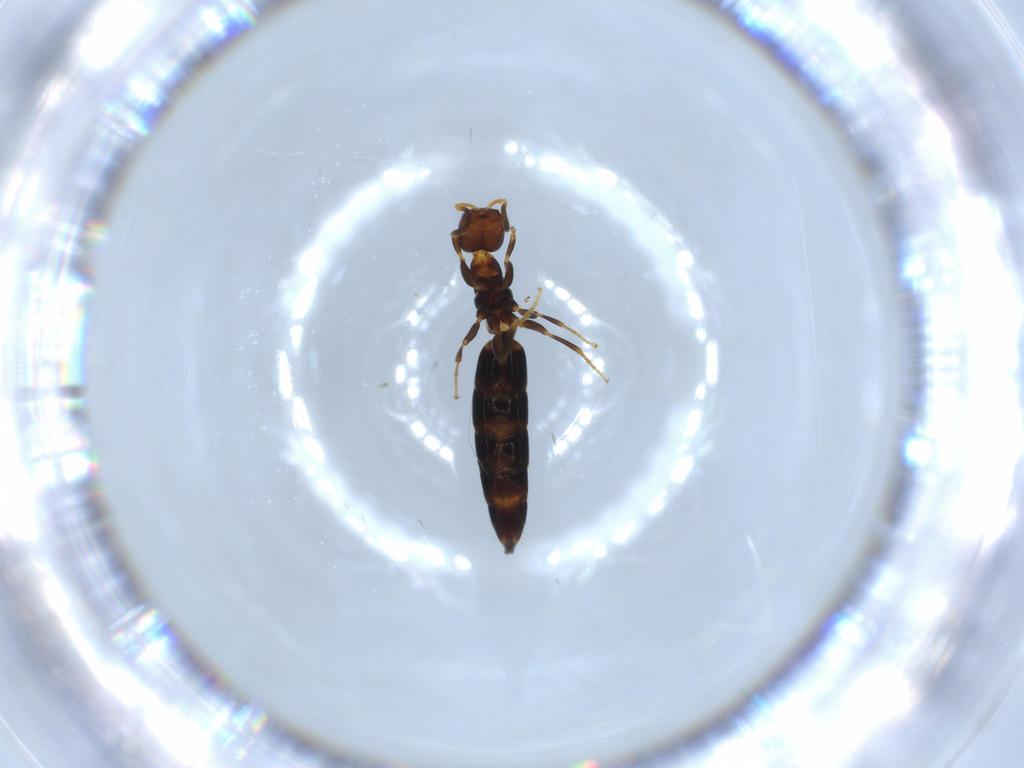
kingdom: Animalia
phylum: Arthropoda
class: Insecta
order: Hymenoptera
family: Bethylidae
